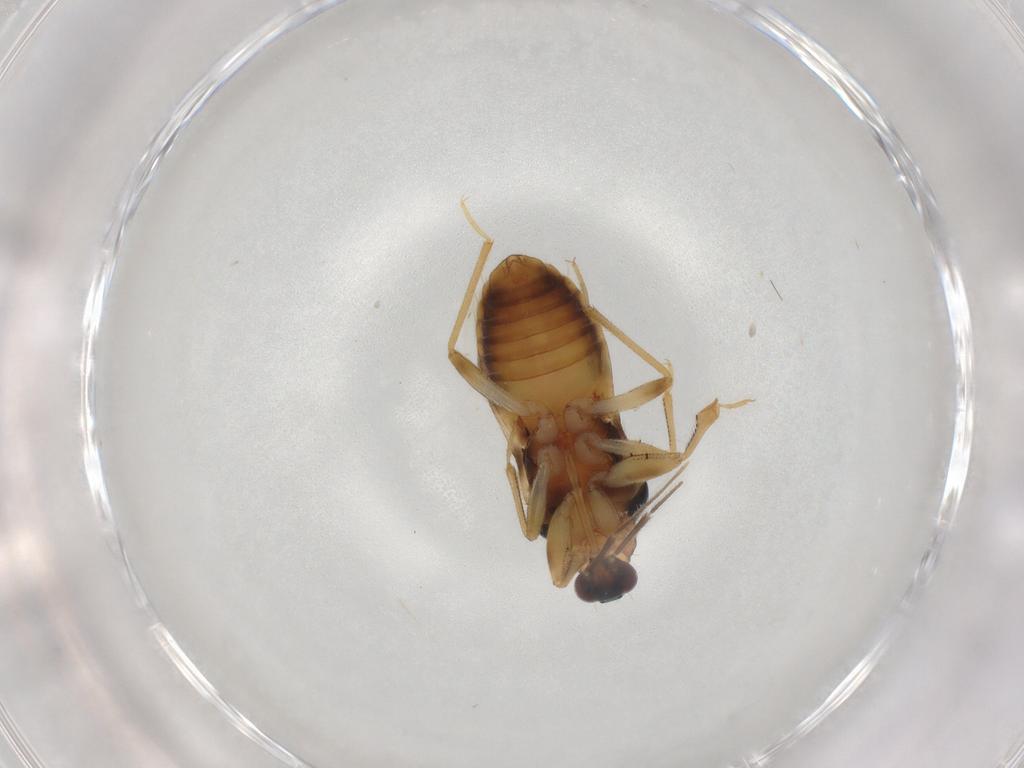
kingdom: Animalia
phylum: Arthropoda
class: Insecta
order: Hemiptera
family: Nabidae
